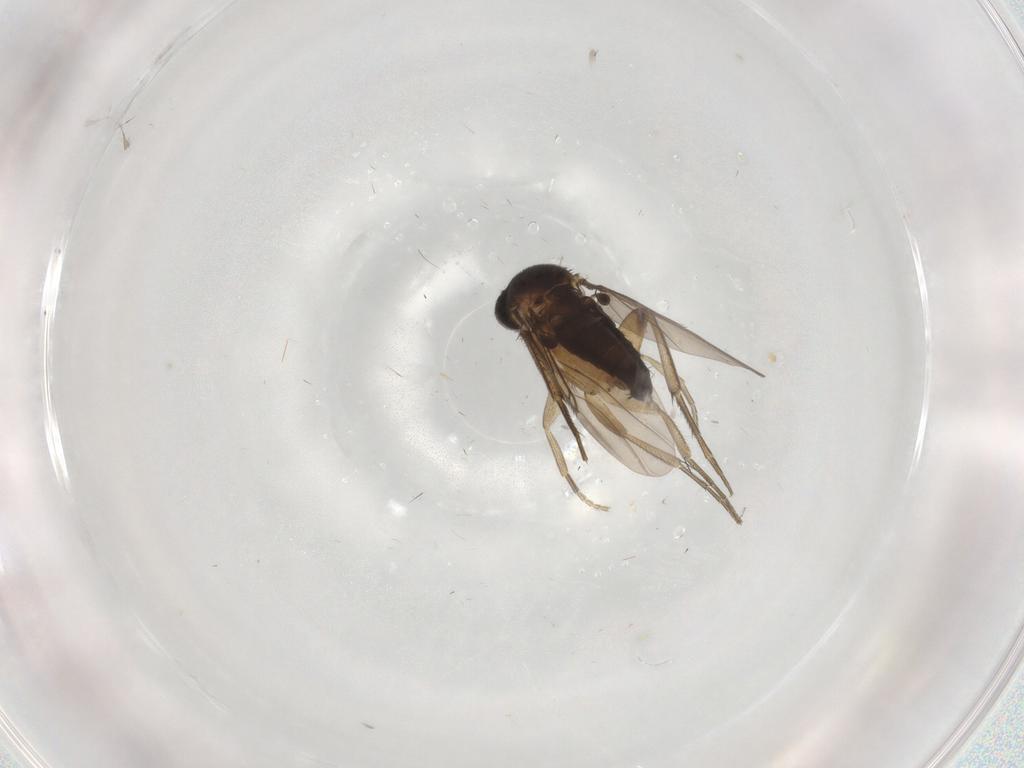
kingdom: Animalia
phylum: Arthropoda
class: Insecta
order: Diptera
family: Phoridae
